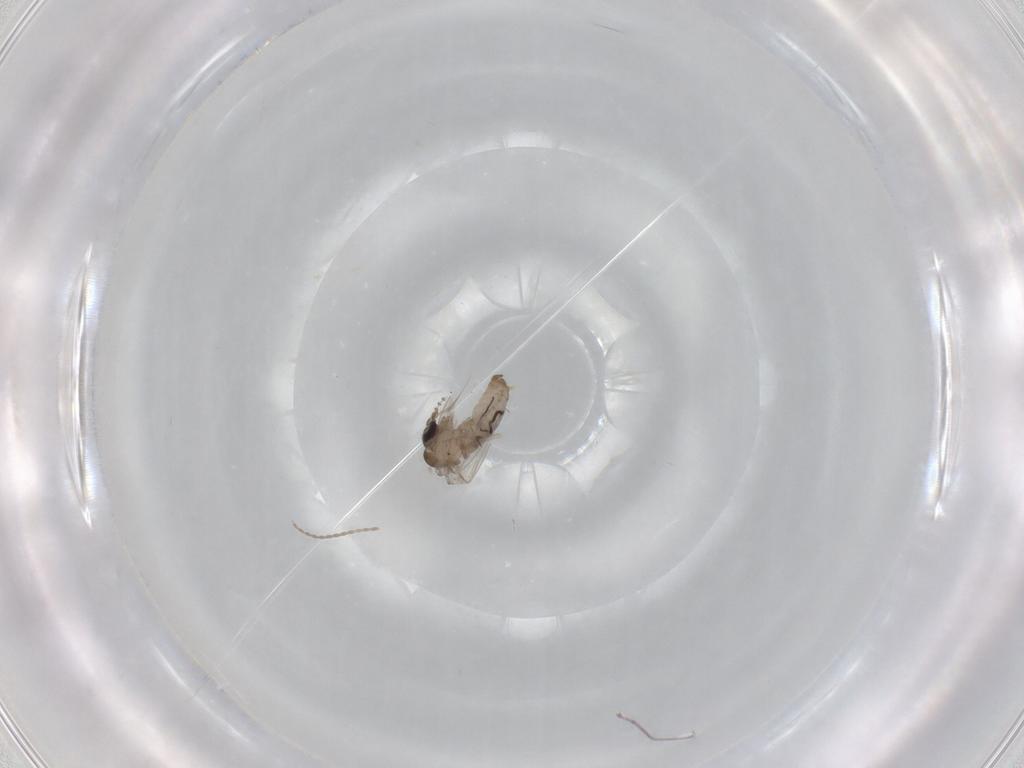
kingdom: Animalia
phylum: Arthropoda
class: Insecta
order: Diptera
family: Psychodidae
